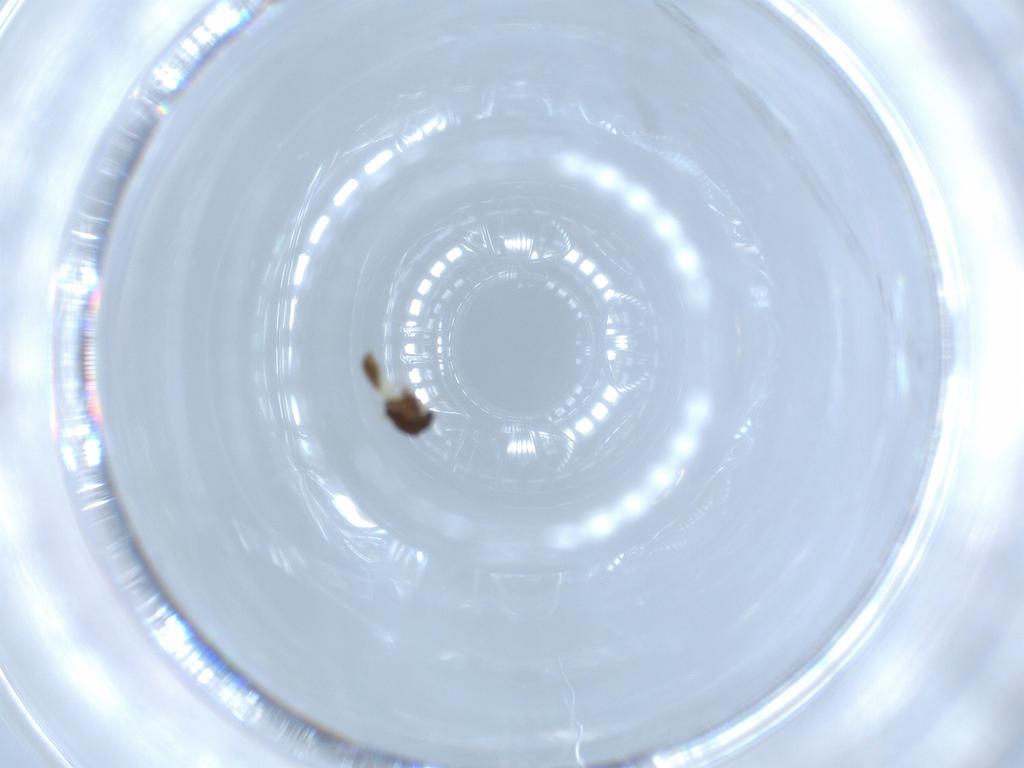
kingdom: Animalia
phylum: Arthropoda
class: Insecta
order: Diptera
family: Chironomidae
